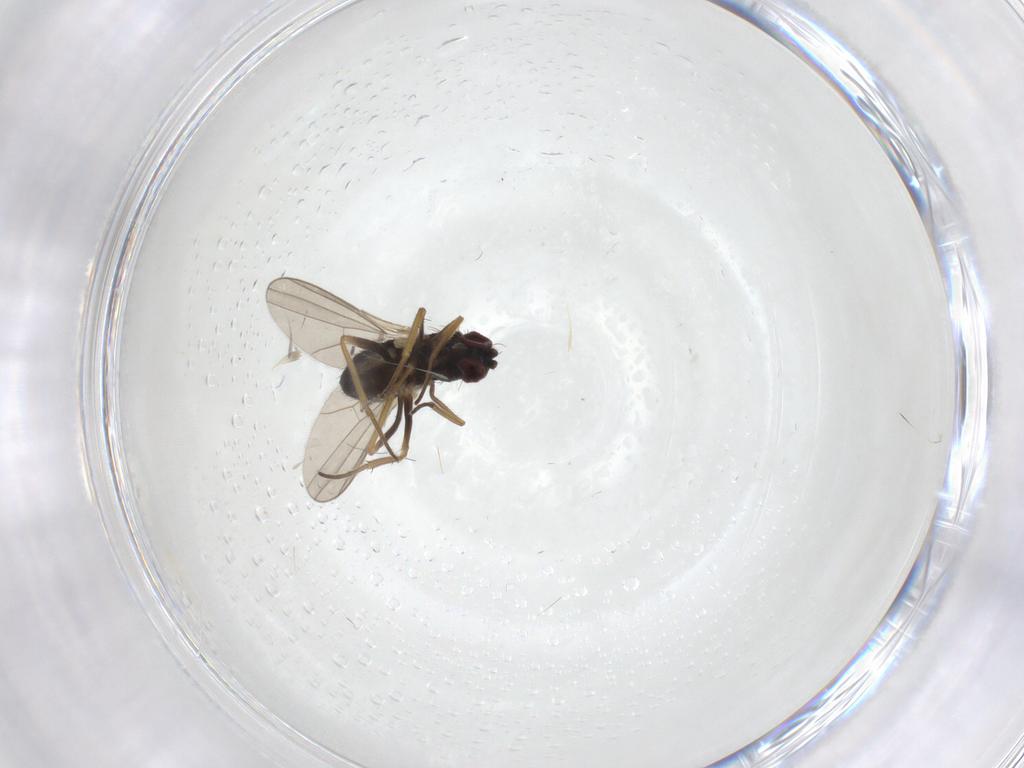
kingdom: Animalia
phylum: Arthropoda
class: Insecta
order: Diptera
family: Dolichopodidae
